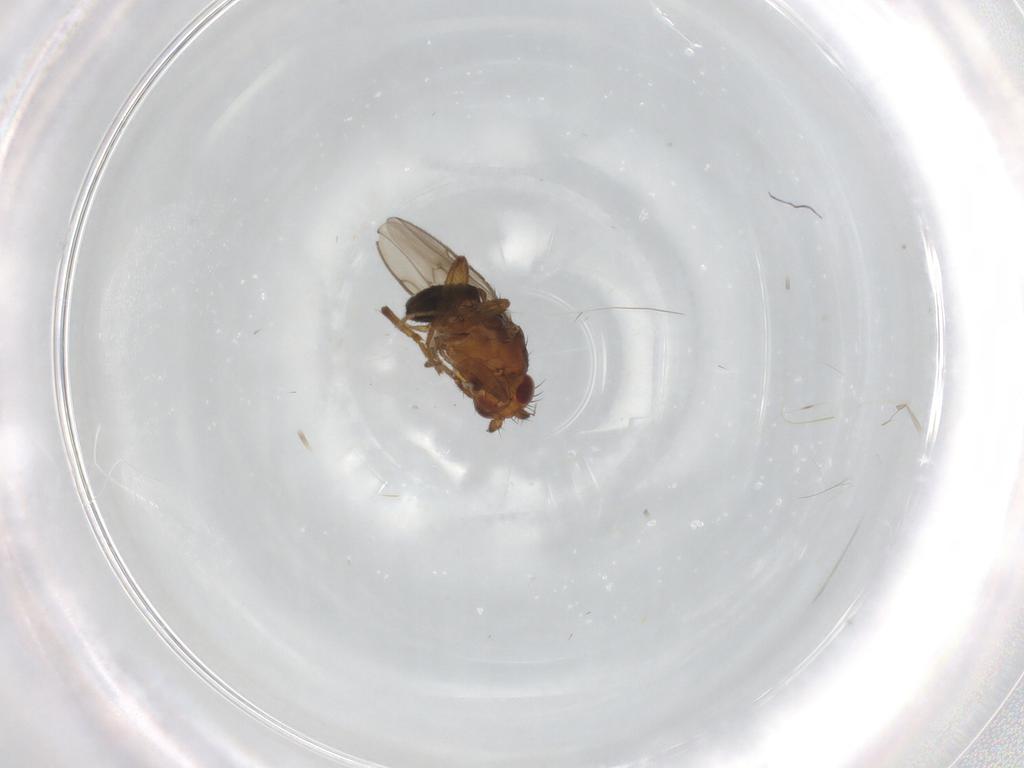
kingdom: Animalia
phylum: Arthropoda
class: Insecta
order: Diptera
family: Sphaeroceridae
